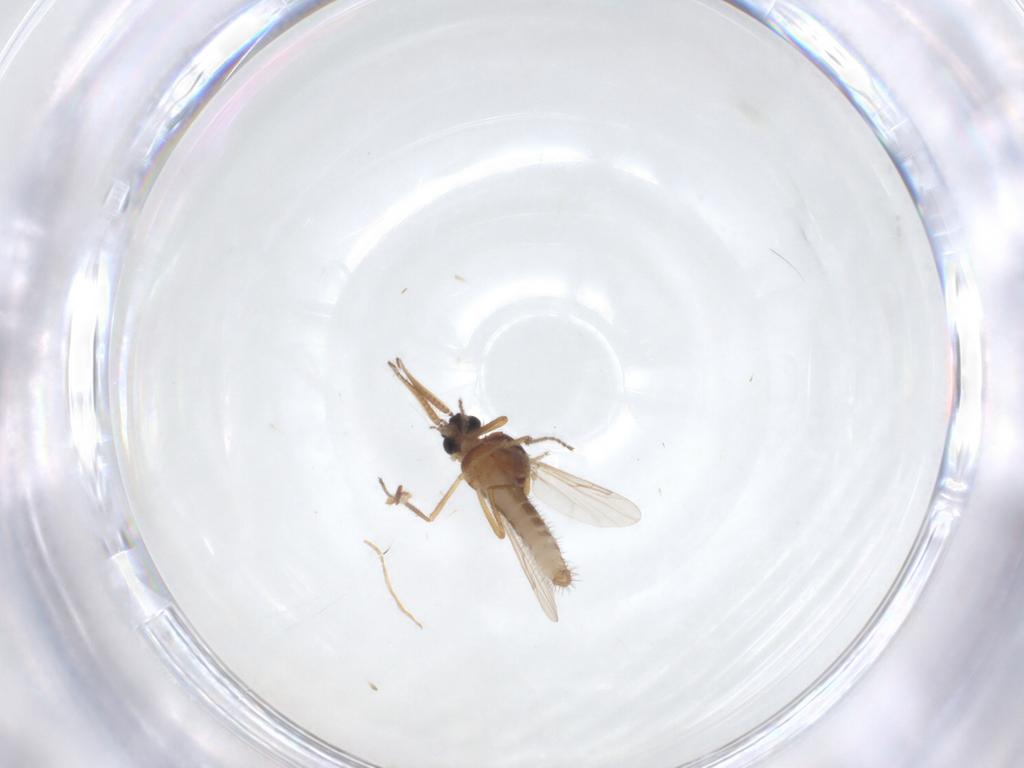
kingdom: Animalia
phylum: Arthropoda
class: Insecta
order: Diptera
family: Ceratopogonidae
